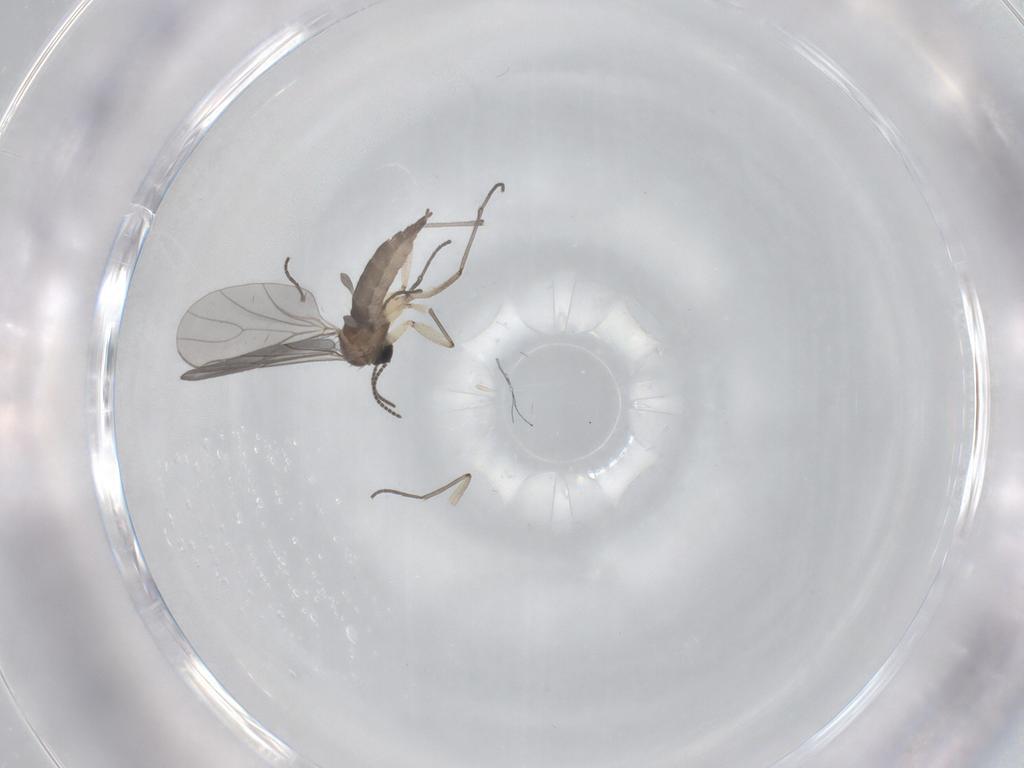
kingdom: Animalia
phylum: Arthropoda
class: Insecta
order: Diptera
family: Sciaridae
